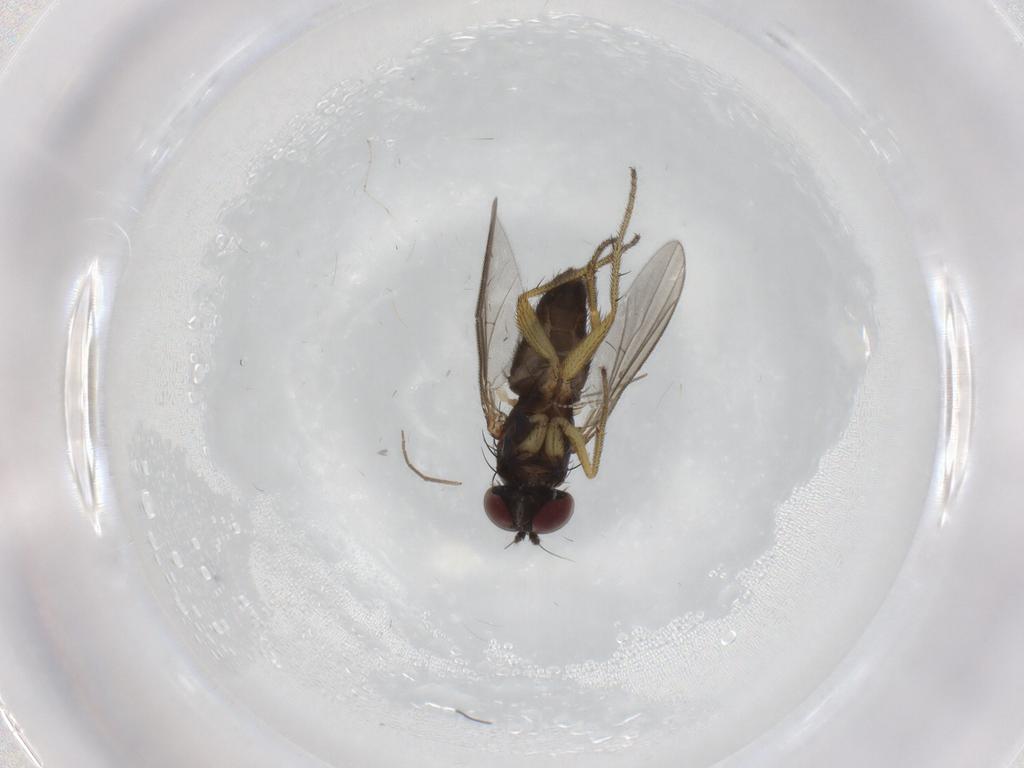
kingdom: Animalia
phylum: Arthropoda
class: Insecta
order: Diptera
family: Dolichopodidae
